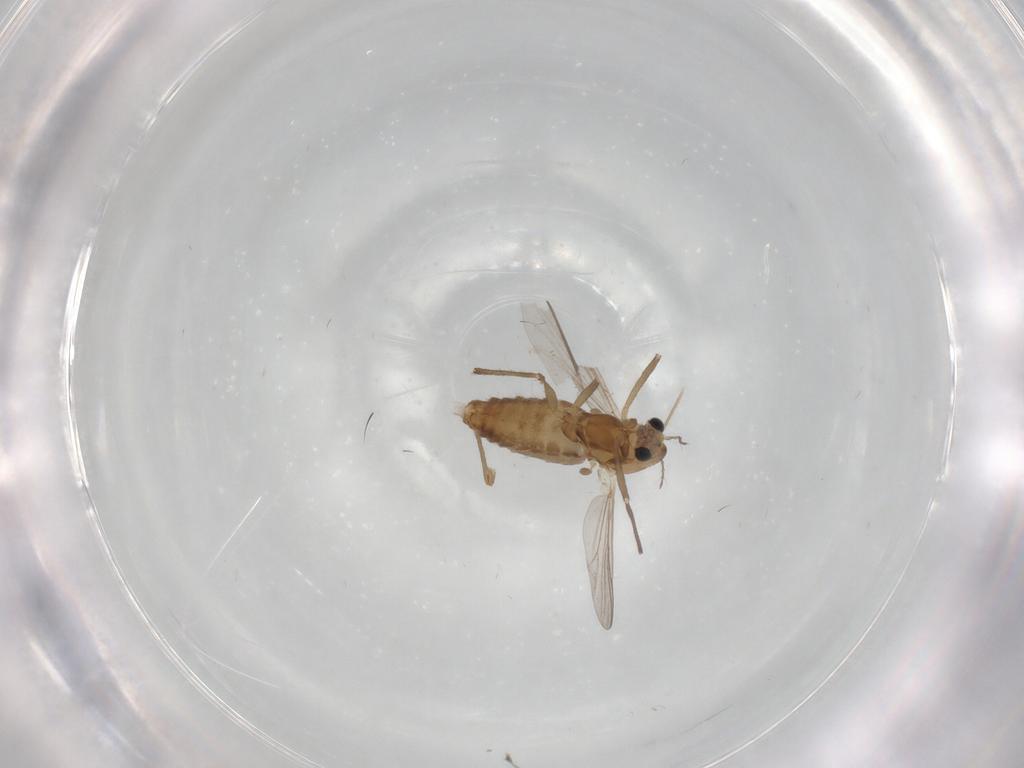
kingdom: Animalia
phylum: Arthropoda
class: Insecta
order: Diptera
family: Chironomidae
